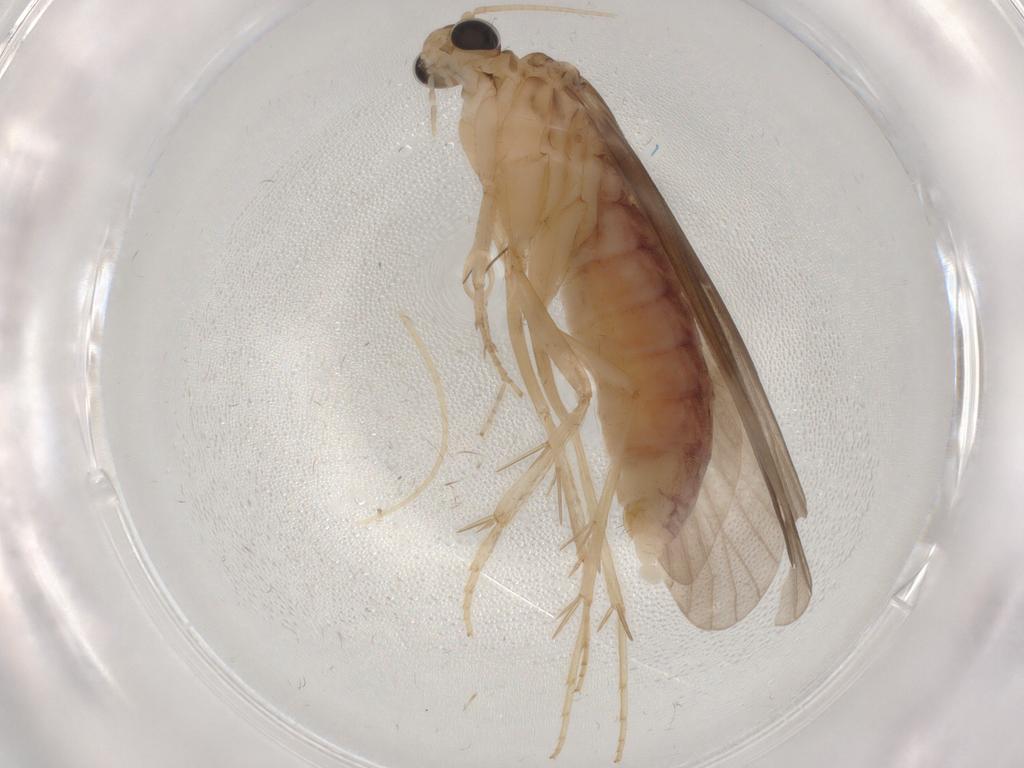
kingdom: Animalia
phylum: Arthropoda
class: Insecta
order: Trichoptera
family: Ecnomidae
